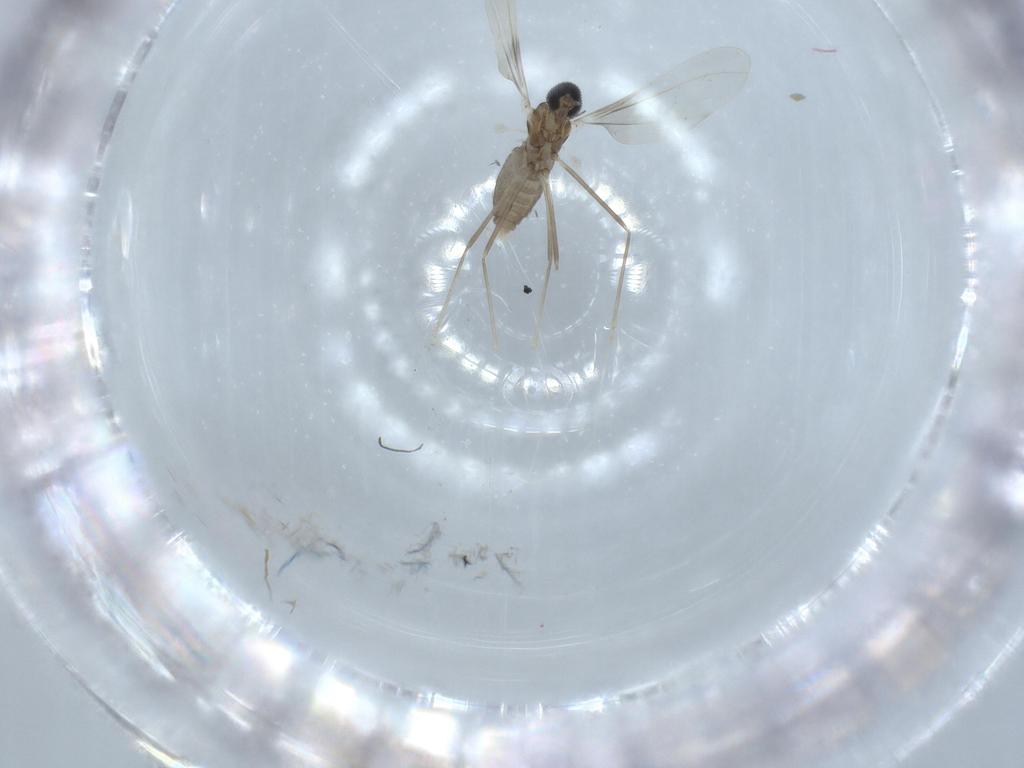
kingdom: Animalia
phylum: Arthropoda
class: Insecta
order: Diptera
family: Cecidomyiidae
